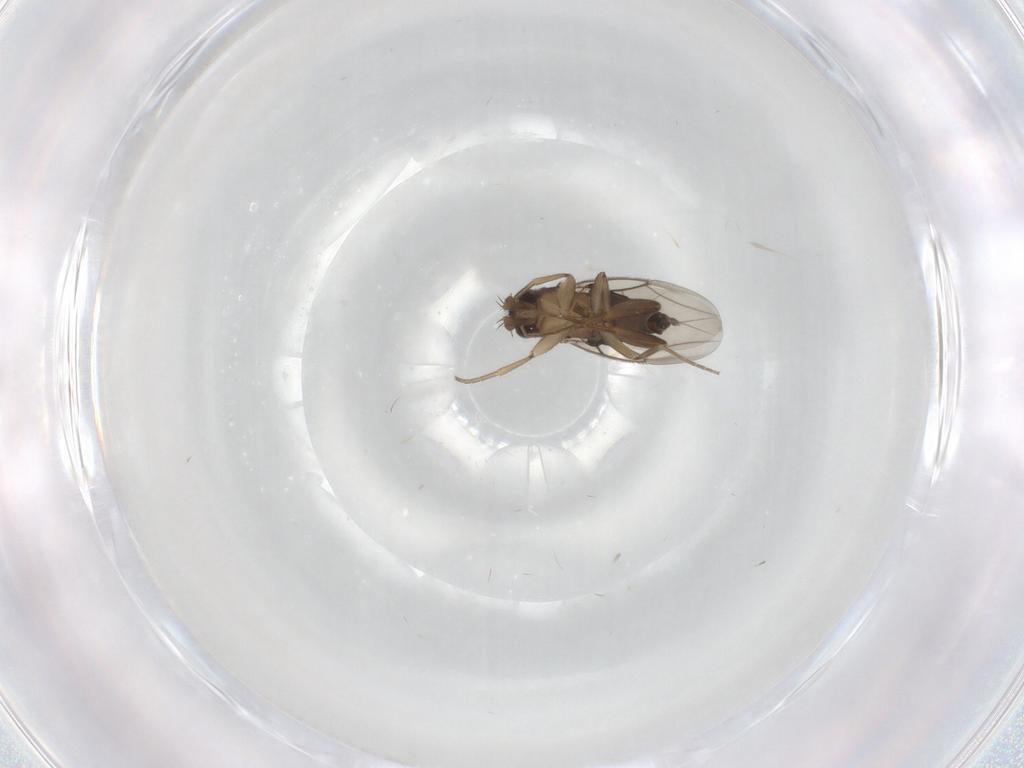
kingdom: Animalia
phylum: Arthropoda
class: Insecta
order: Diptera
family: Phoridae
